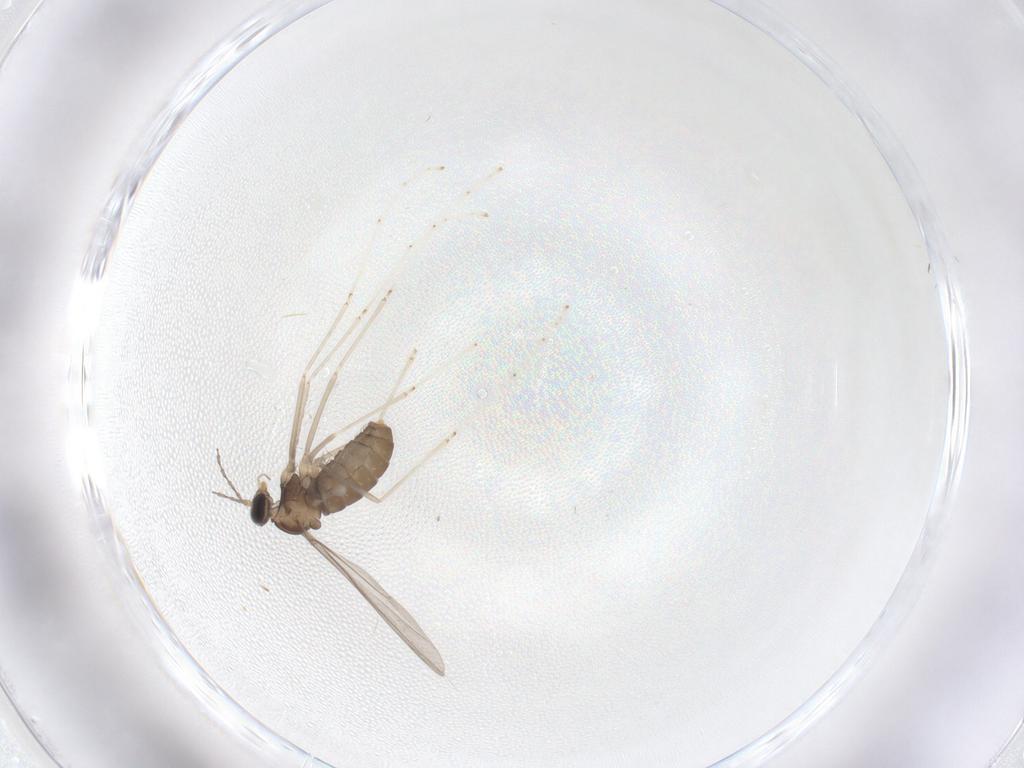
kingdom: Animalia
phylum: Arthropoda
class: Insecta
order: Diptera
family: Cecidomyiidae
